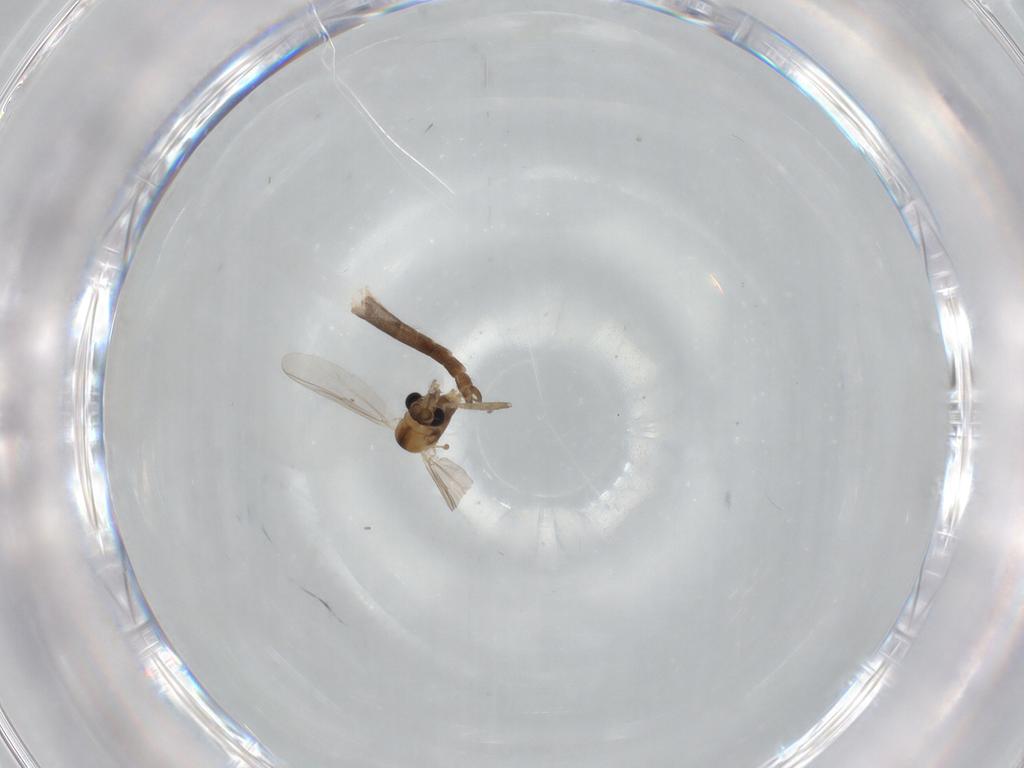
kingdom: Animalia
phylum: Arthropoda
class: Insecta
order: Diptera
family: Chironomidae
